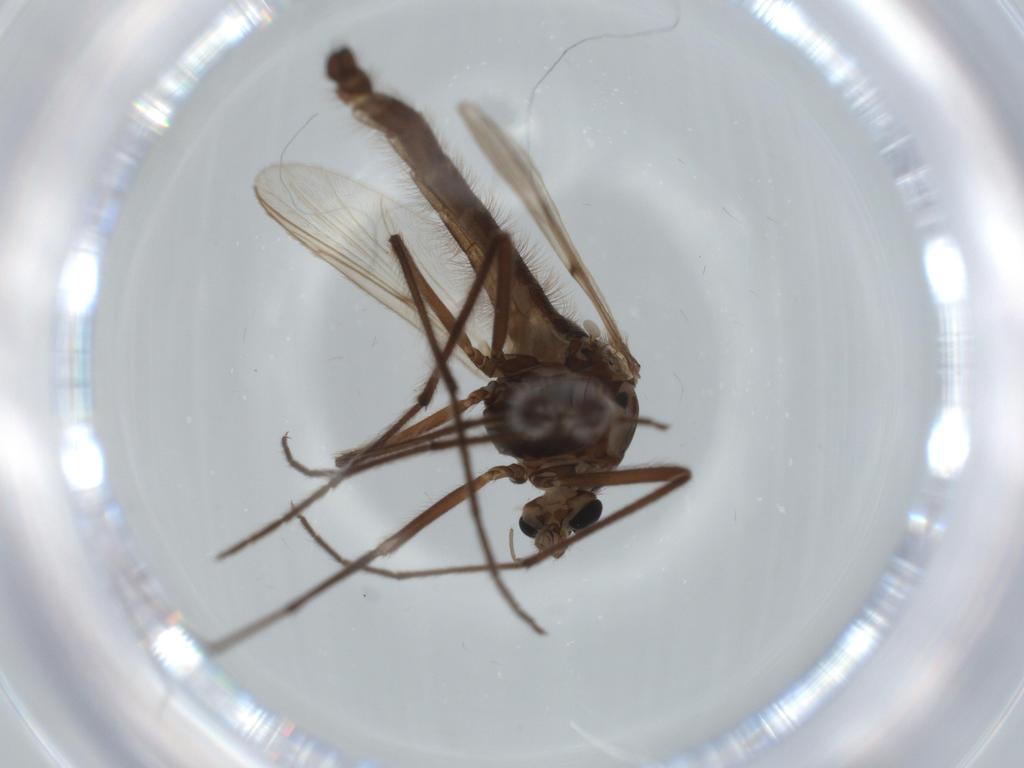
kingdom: Animalia
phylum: Arthropoda
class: Insecta
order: Diptera
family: Chironomidae
